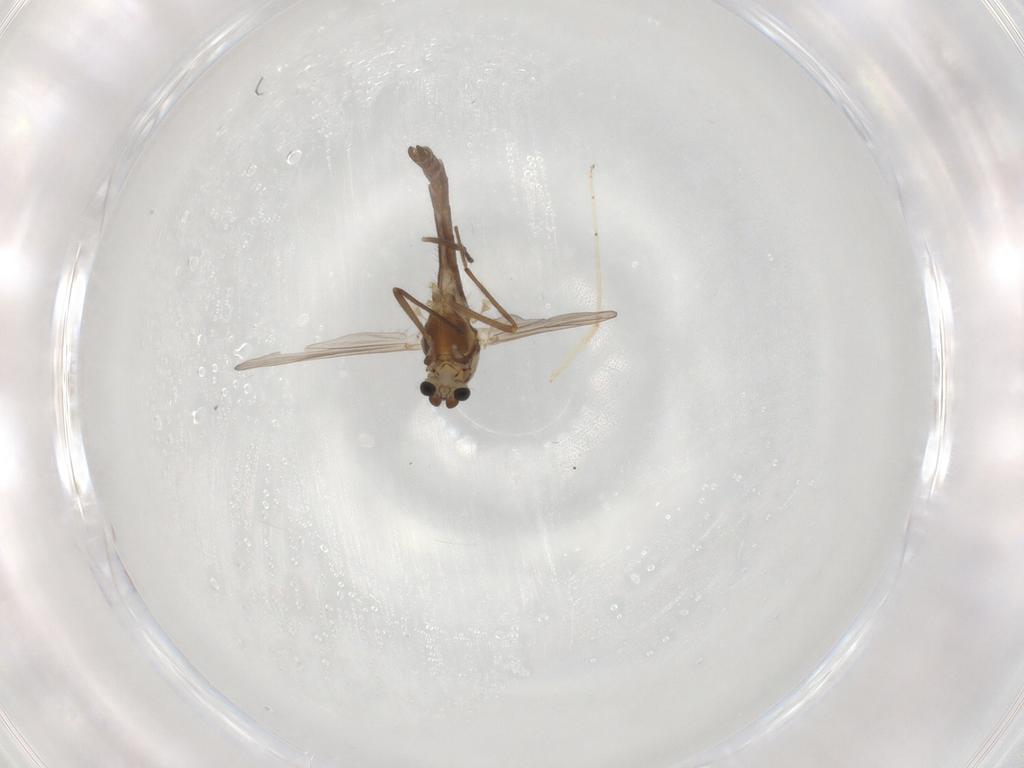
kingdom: Animalia
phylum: Arthropoda
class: Insecta
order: Diptera
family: Chironomidae
